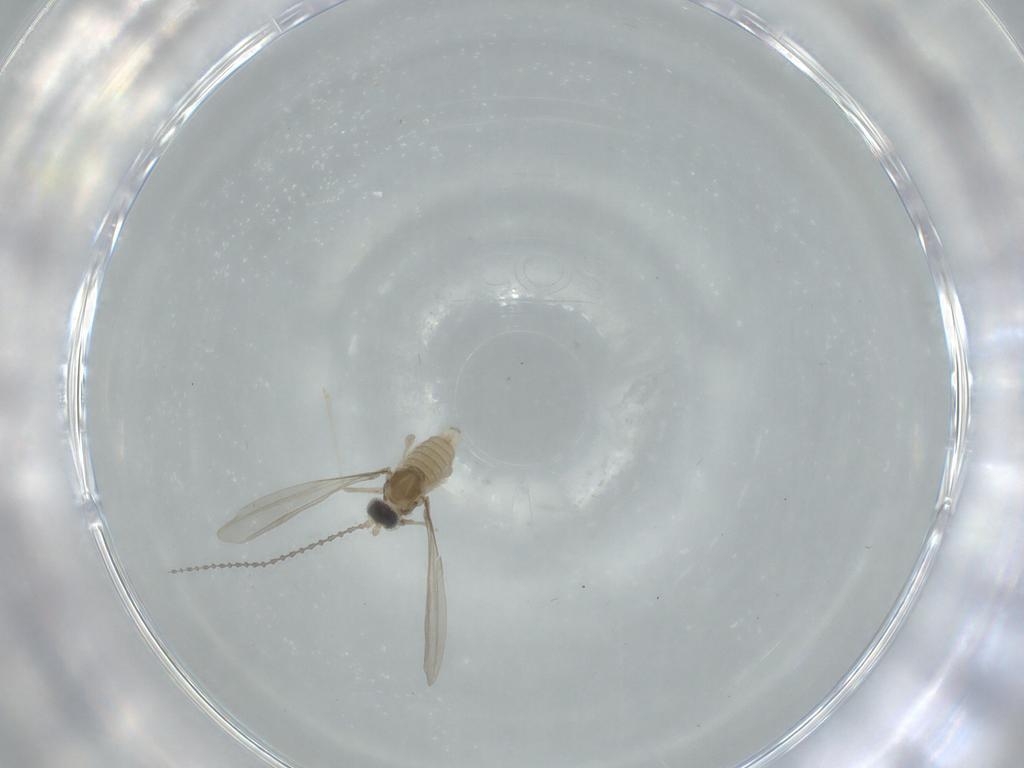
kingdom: Animalia
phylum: Arthropoda
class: Insecta
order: Diptera
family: Cecidomyiidae
